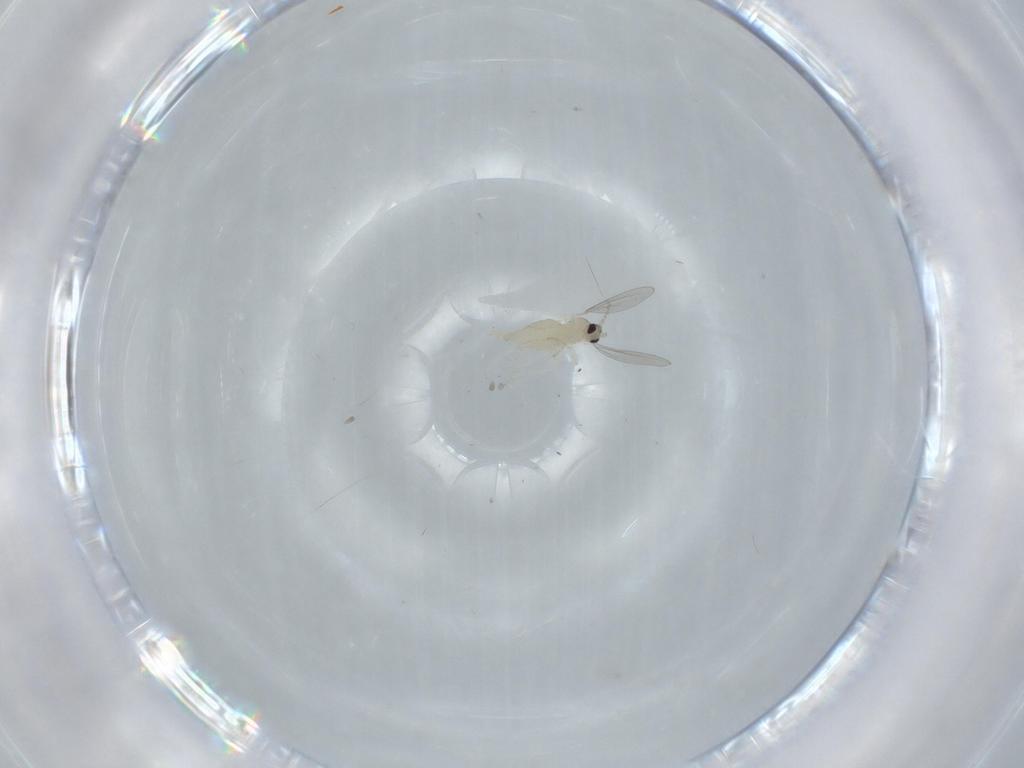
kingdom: Animalia
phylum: Arthropoda
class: Insecta
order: Diptera
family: Cecidomyiidae
